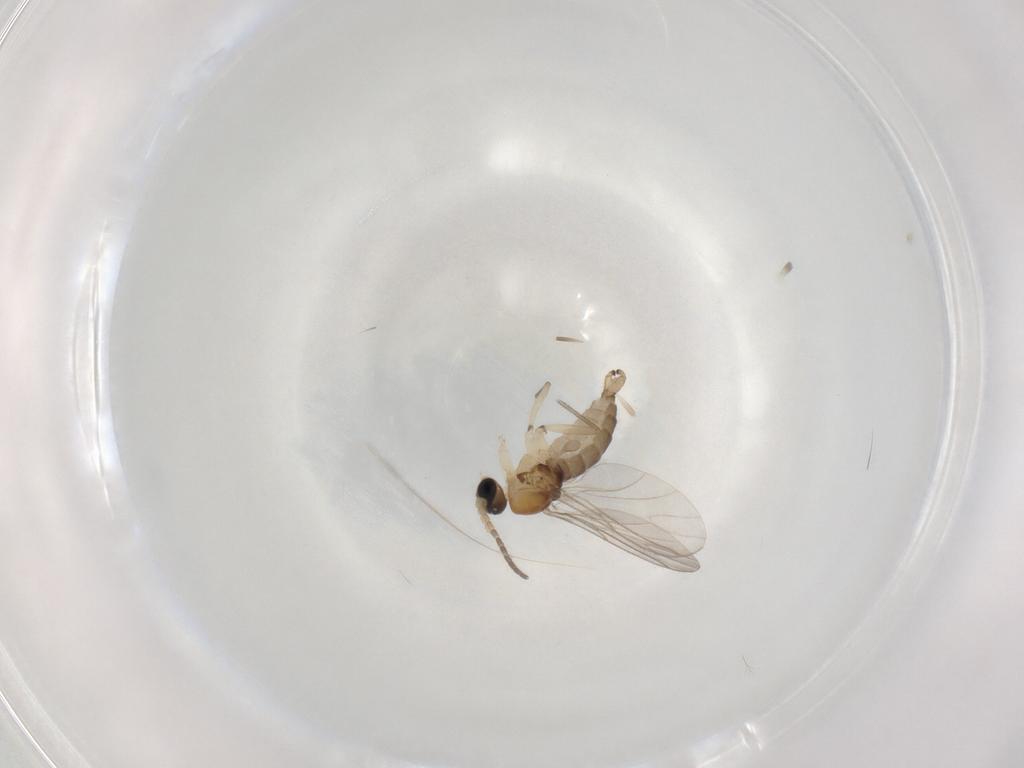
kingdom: Animalia
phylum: Arthropoda
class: Insecta
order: Diptera
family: Sciaridae
